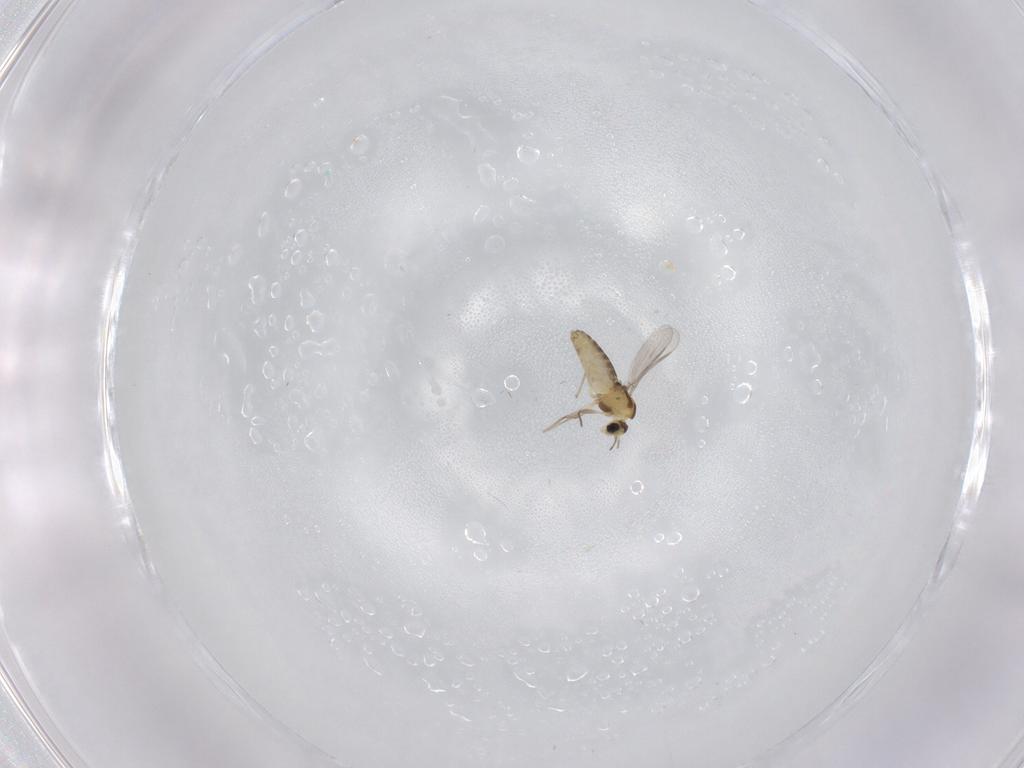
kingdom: Animalia
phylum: Arthropoda
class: Insecta
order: Diptera
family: Chironomidae
